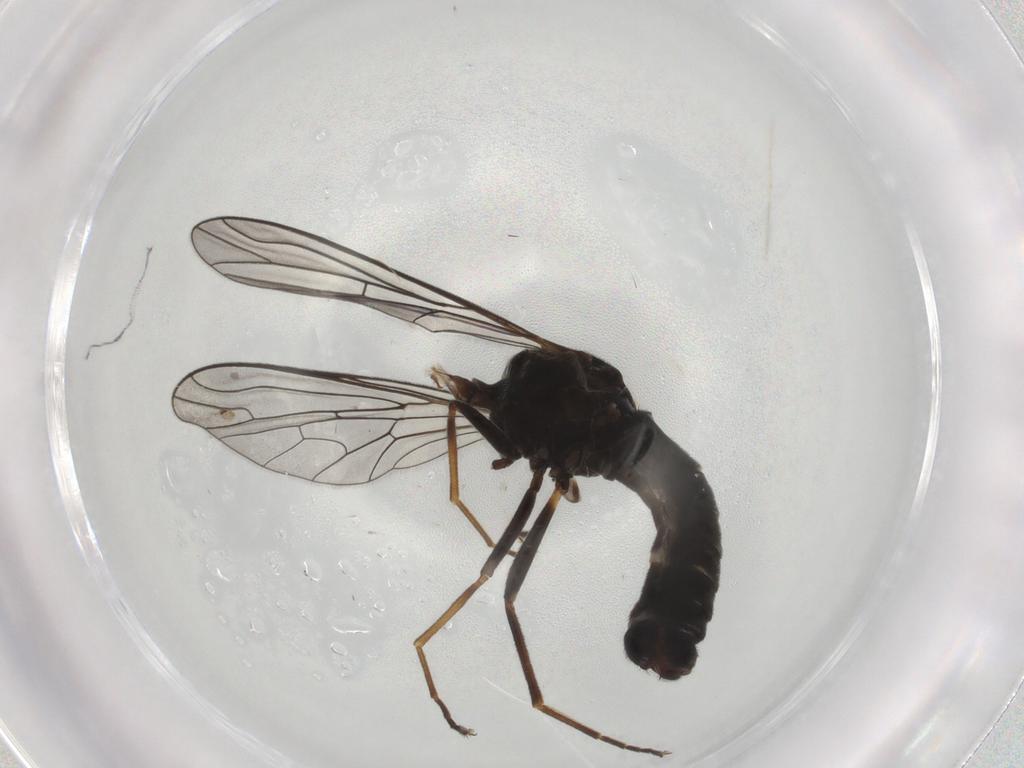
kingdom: Animalia
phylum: Arthropoda
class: Insecta
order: Diptera
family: Bombyliidae
